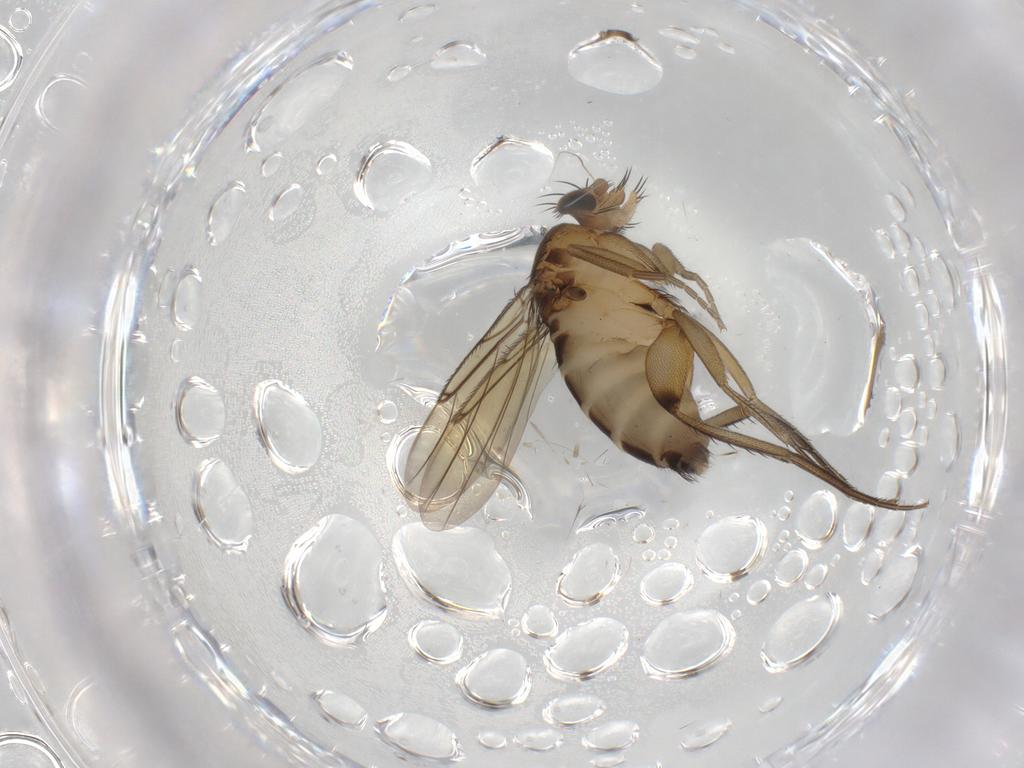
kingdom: Animalia
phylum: Arthropoda
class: Insecta
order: Diptera
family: Phoridae
